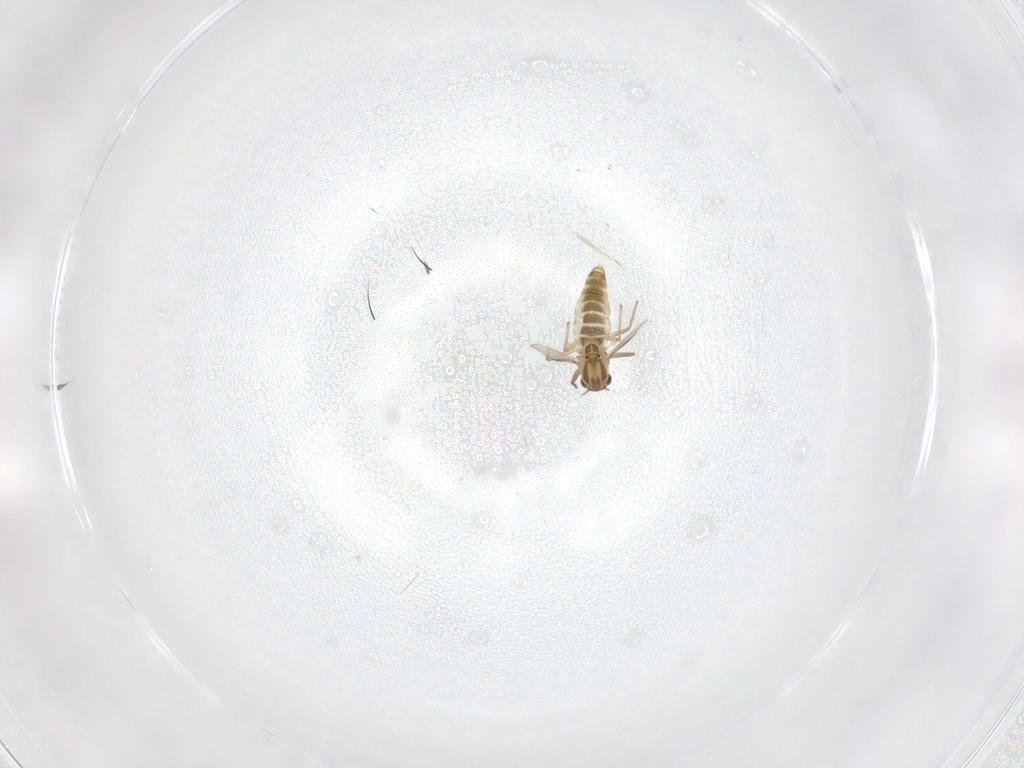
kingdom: Animalia
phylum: Arthropoda
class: Insecta
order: Diptera
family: Chironomidae
